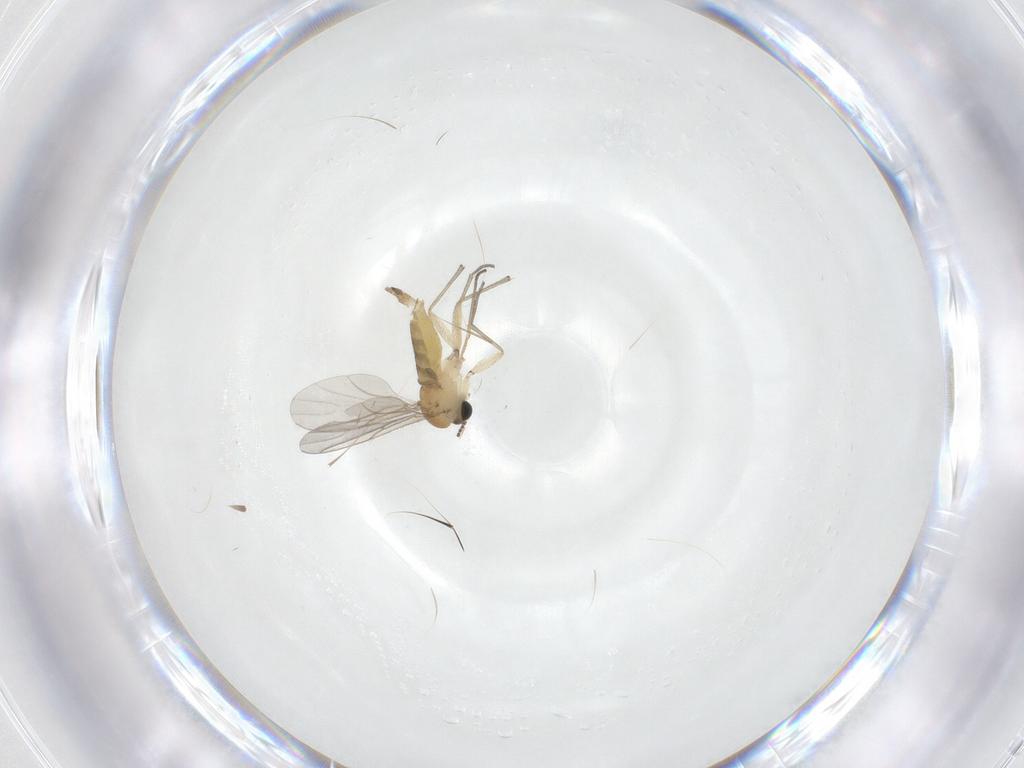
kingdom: Animalia
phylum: Arthropoda
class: Insecta
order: Diptera
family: Sciaridae
